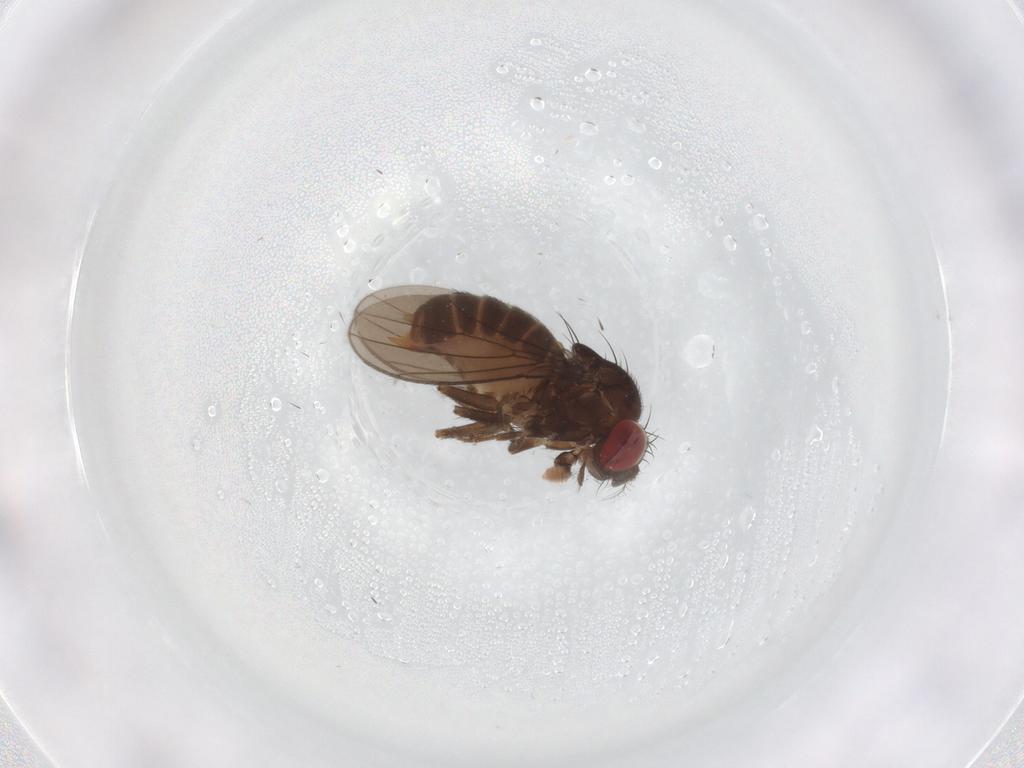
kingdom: Animalia
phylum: Arthropoda
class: Insecta
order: Diptera
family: Drosophilidae
